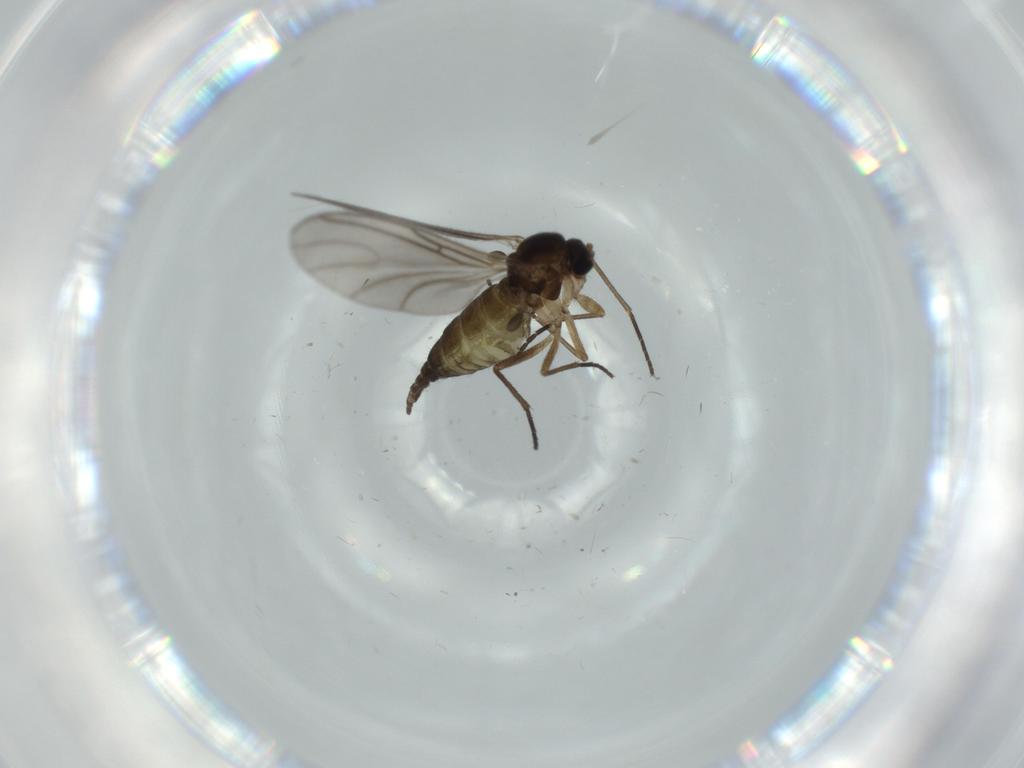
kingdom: Animalia
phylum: Arthropoda
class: Insecta
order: Diptera
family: Sciaridae
